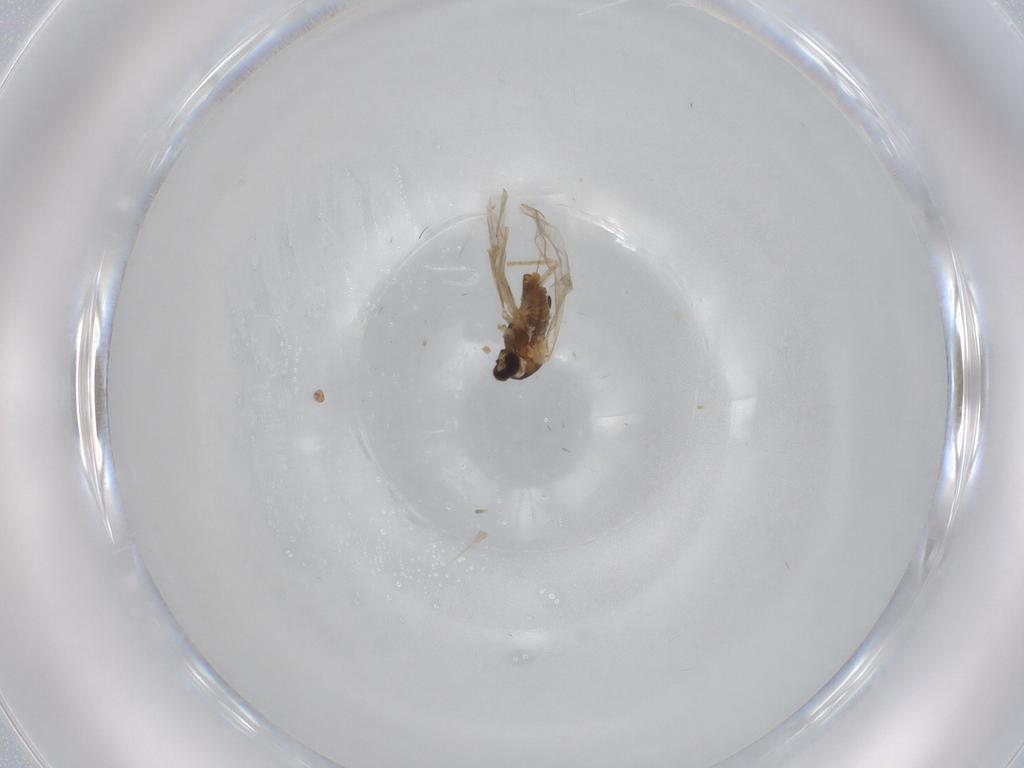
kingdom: Animalia
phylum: Arthropoda
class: Insecta
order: Diptera
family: Cecidomyiidae
